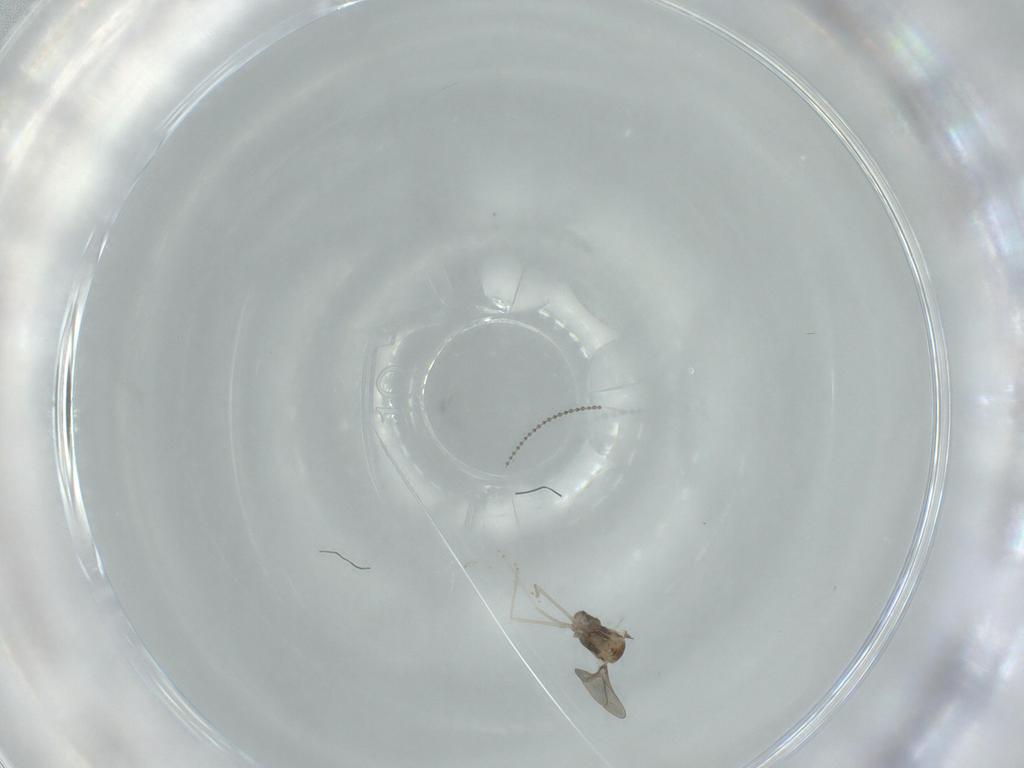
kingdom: Animalia
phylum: Arthropoda
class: Insecta
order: Diptera
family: Cecidomyiidae
